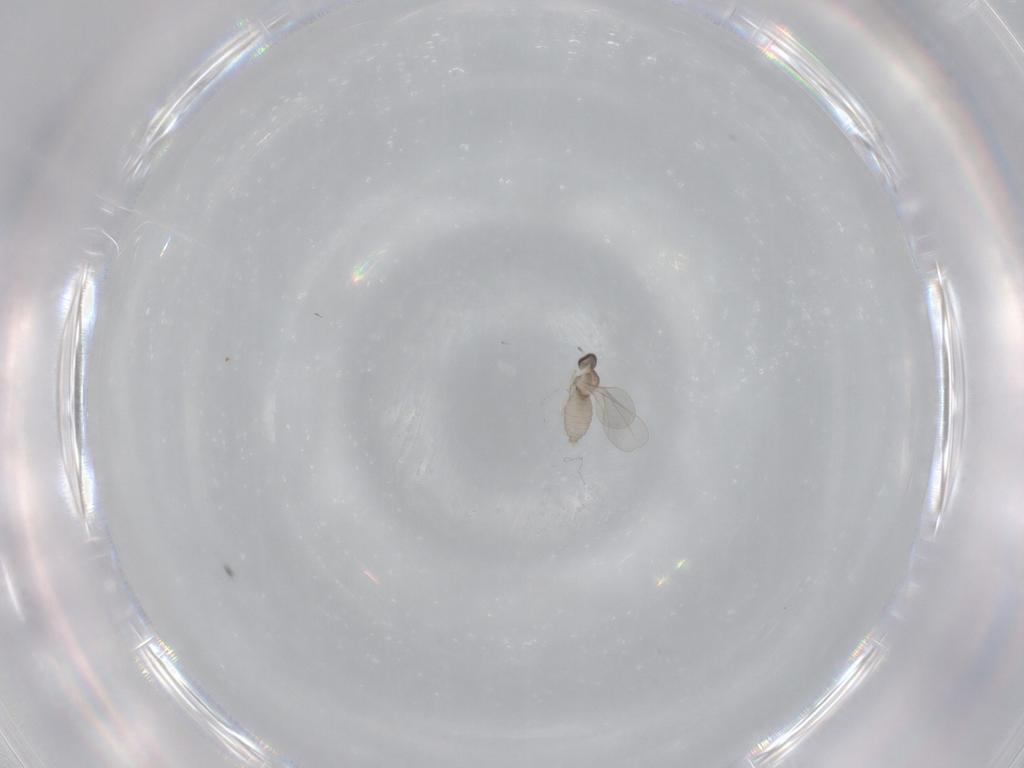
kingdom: Animalia
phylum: Arthropoda
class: Insecta
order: Diptera
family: Cecidomyiidae
